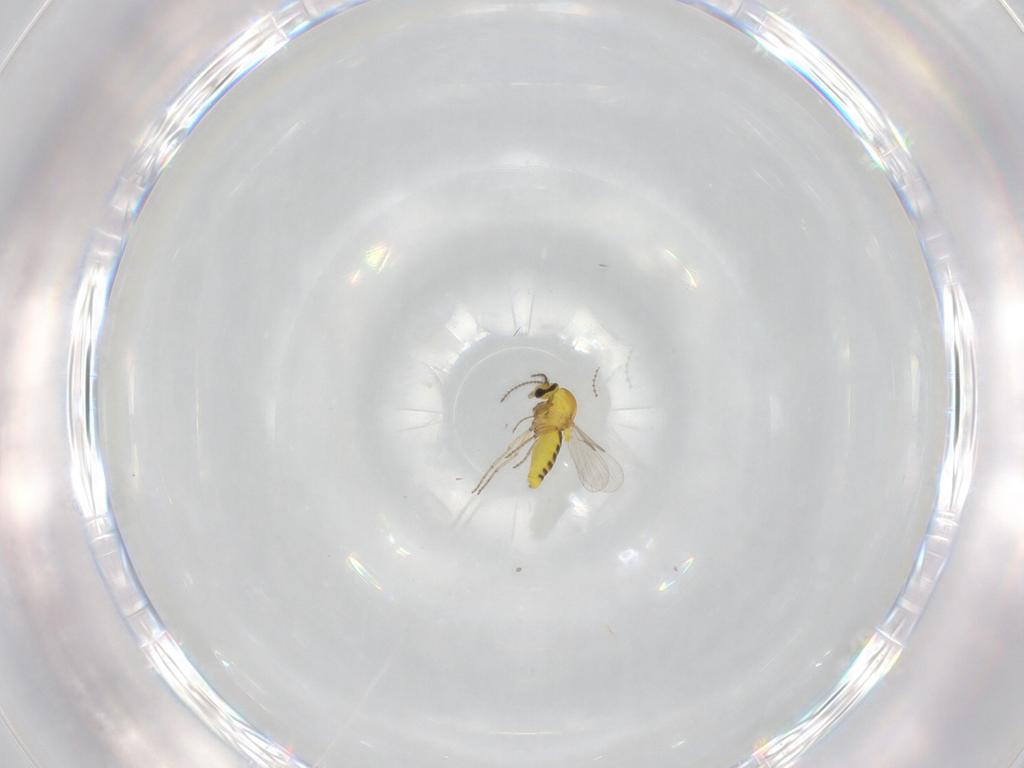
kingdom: Animalia
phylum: Arthropoda
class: Insecta
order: Diptera
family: Ceratopogonidae
